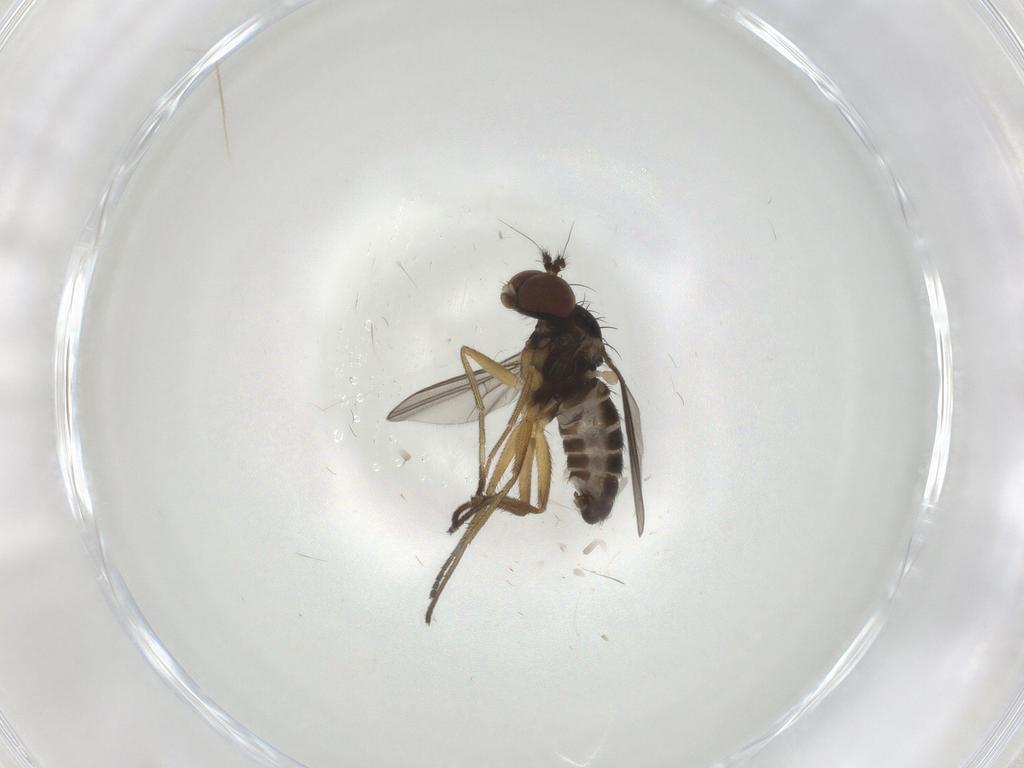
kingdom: Animalia
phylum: Arthropoda
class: Insecta
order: Diptera
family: Dolichopodidae
